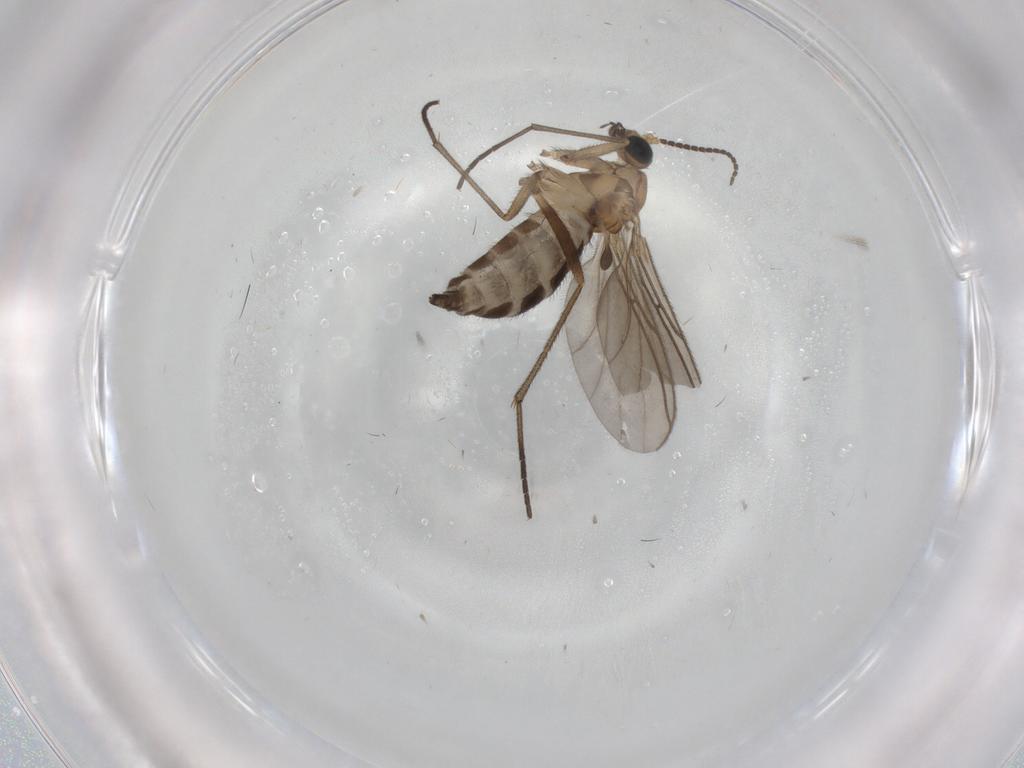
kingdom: Animalia
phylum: Arthropoda
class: Insecta
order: Diptera
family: Sciaridae
